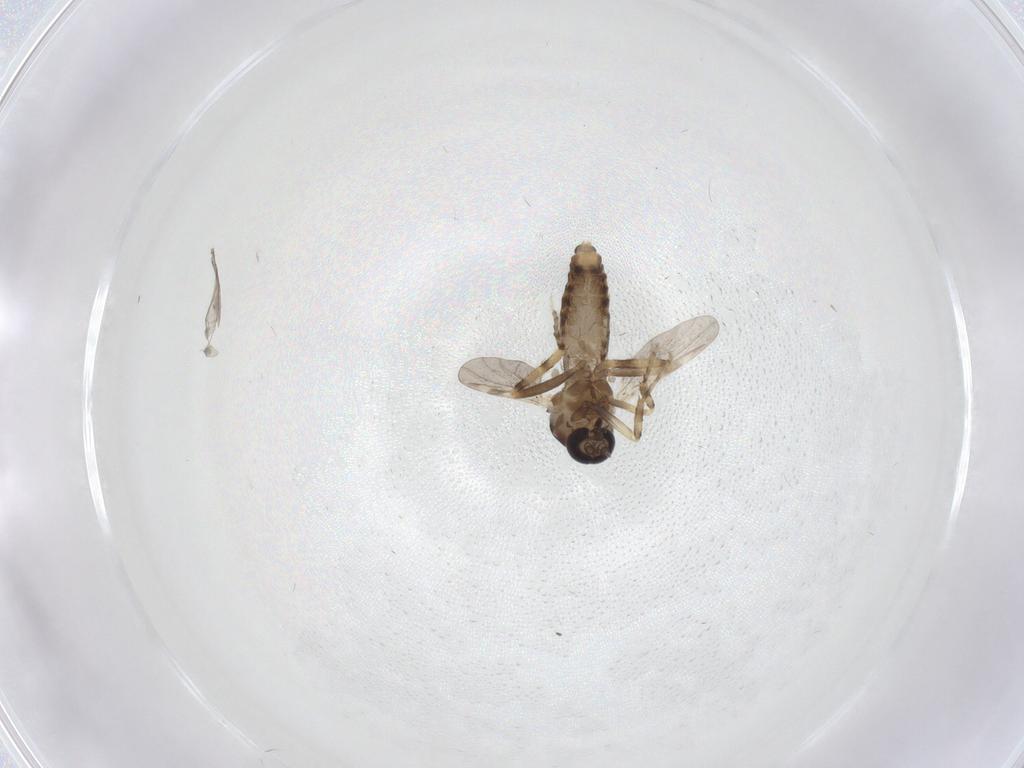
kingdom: Animalia
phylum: Arthropoda
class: Insecta
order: Diptera
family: Ceratopogonidae
